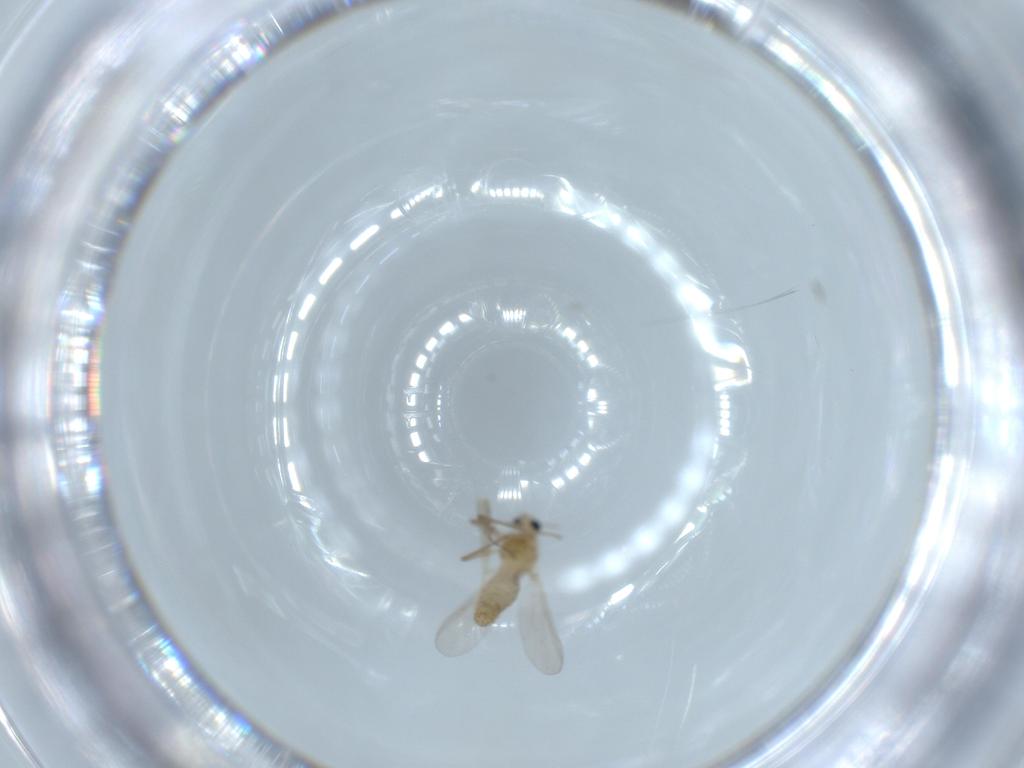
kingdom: Animalia
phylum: Arthropoda
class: Insecta
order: Diptera
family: Chironomidae
